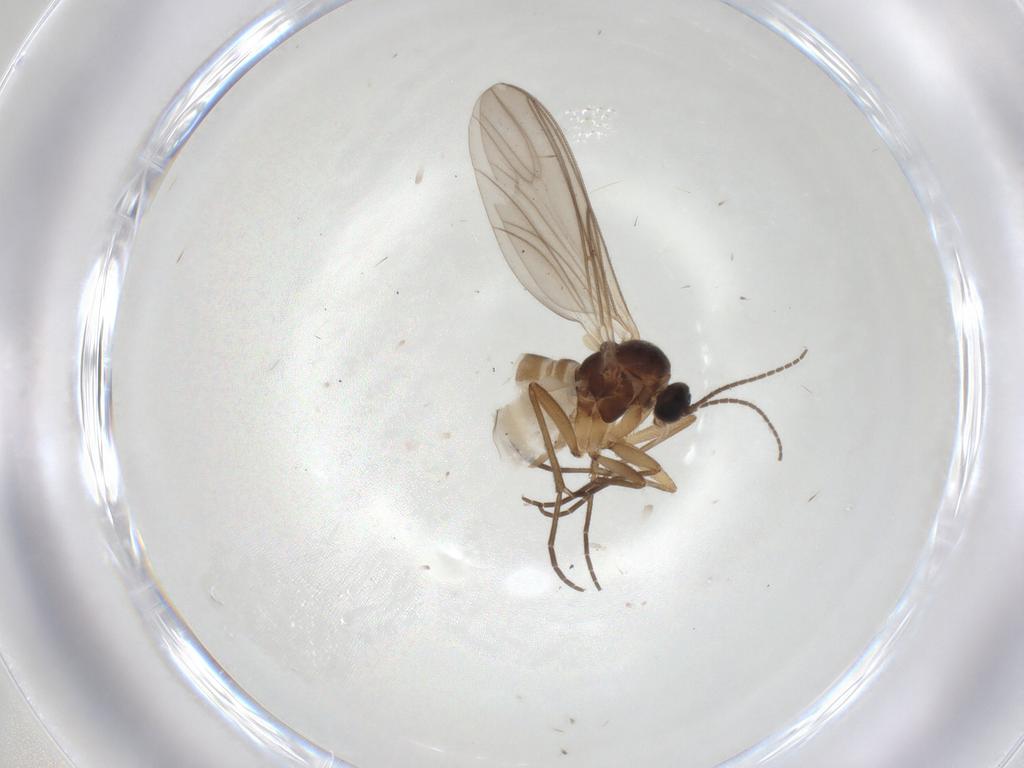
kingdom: Animalia
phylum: Arthropoda
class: Insecta
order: Diptera
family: Sciaridae
